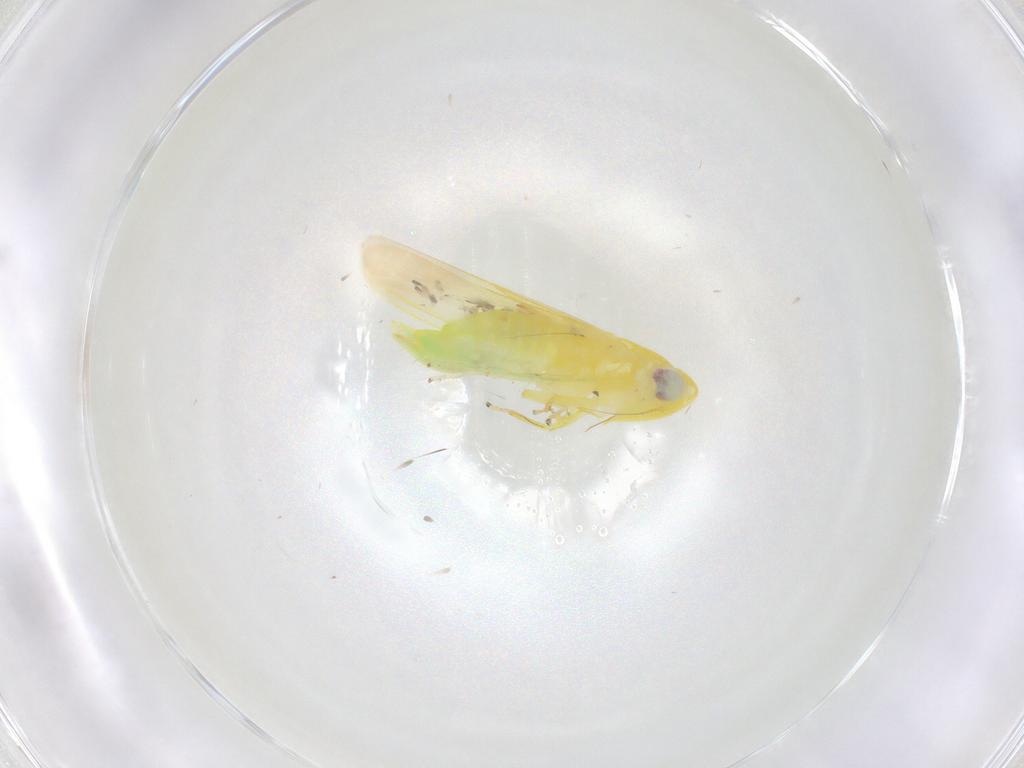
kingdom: Animalia
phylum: Arthropoda
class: Insecta
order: Hemiptera
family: Cicadellidae
